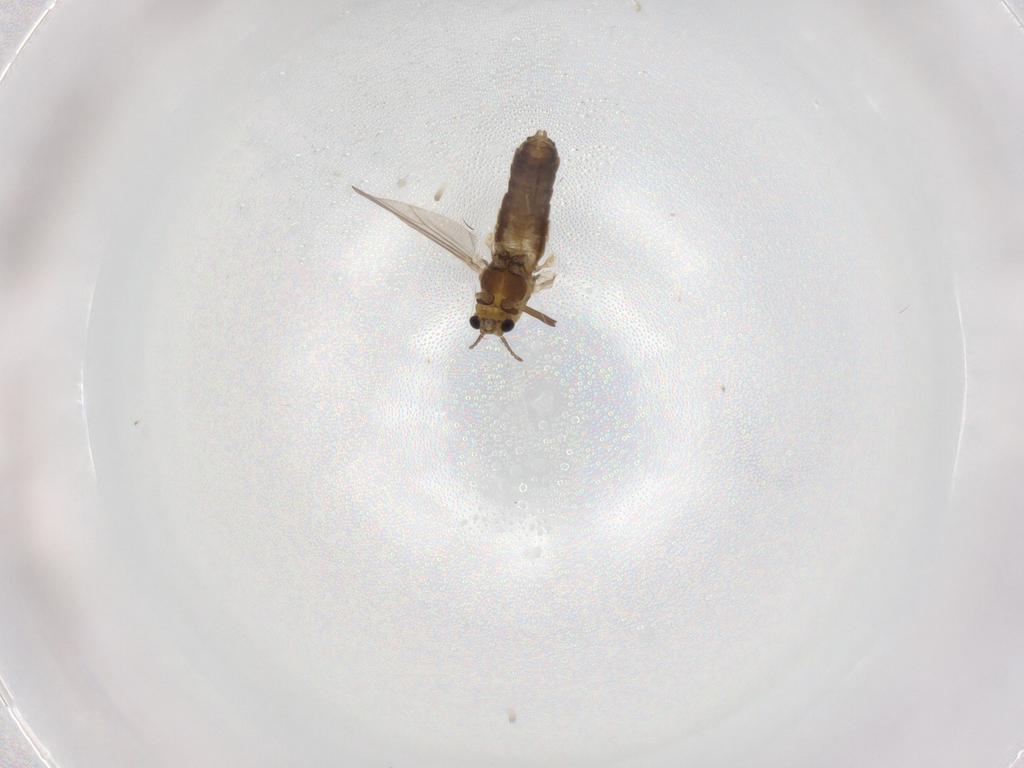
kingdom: Animalia
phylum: Arthropoda
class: Insecta
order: Diptera
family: Chironomidae
